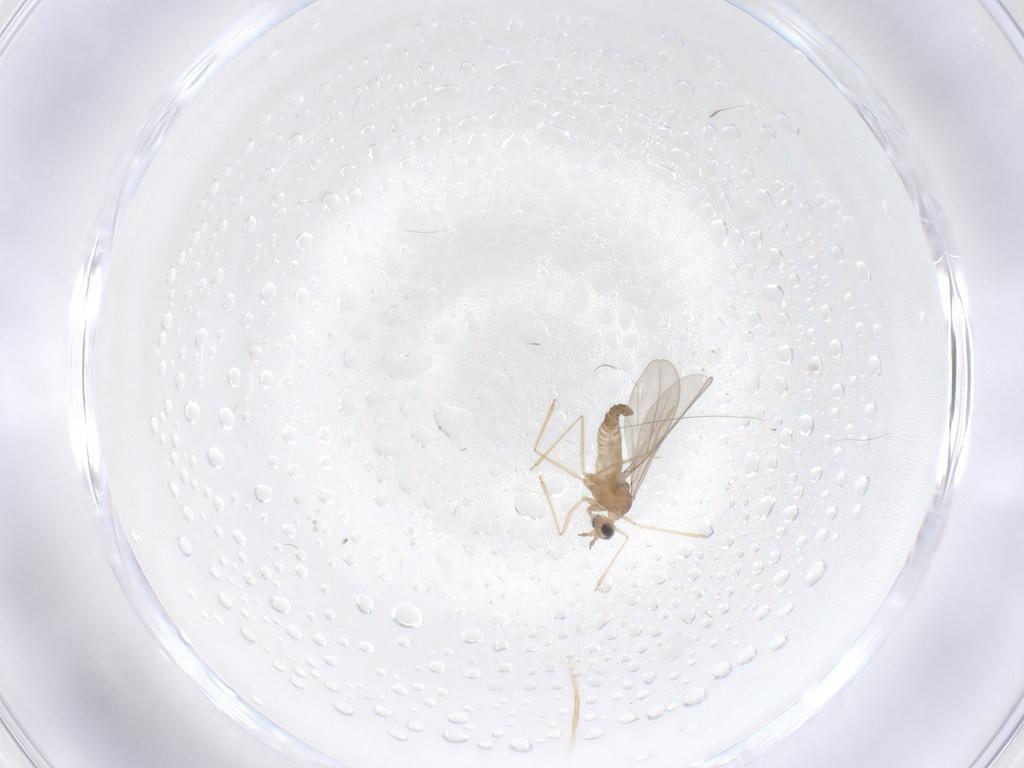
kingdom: Animalia
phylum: Arthropoda
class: Insecta
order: Diptera
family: Cecidomyiidae
